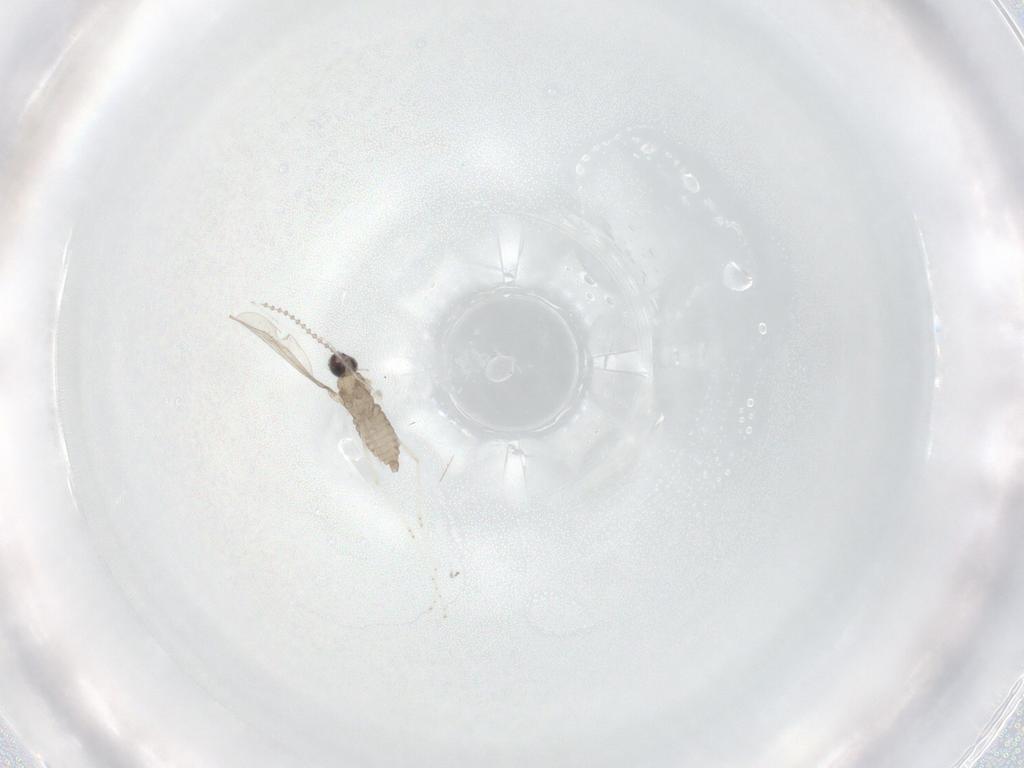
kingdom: Animalia
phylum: Arthropoda
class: Insecta
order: Diptera
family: Cecidomyiidae
